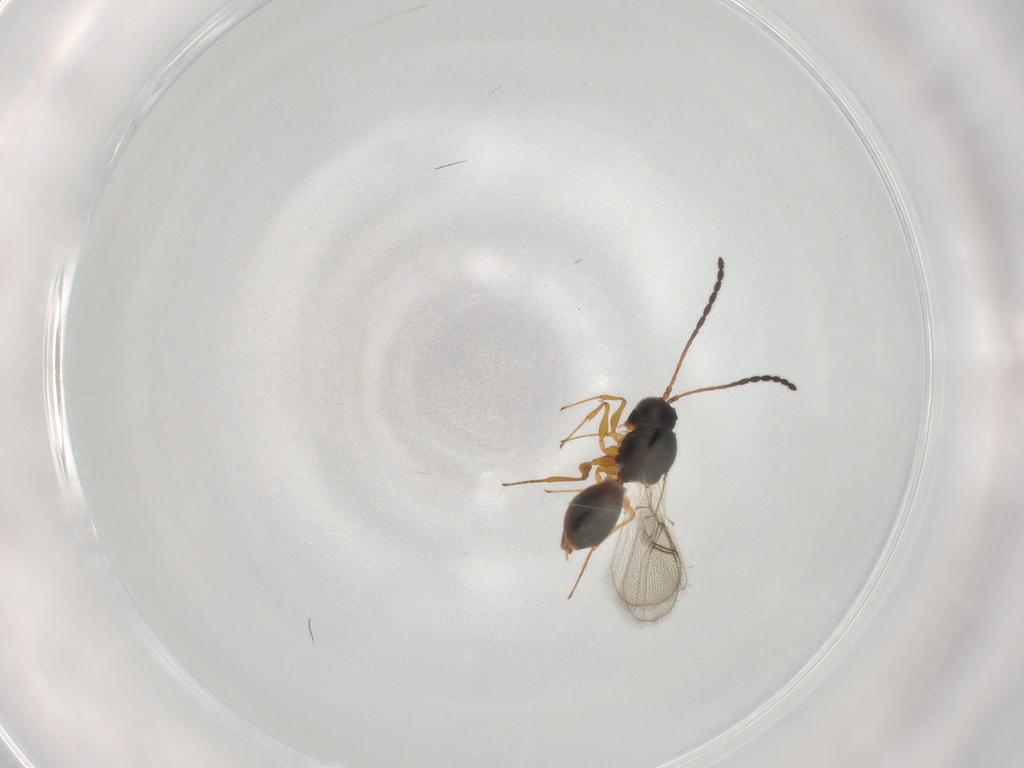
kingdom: Animalia
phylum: Arthropoda
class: Insecta
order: Hymenoptera
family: Figitidae
